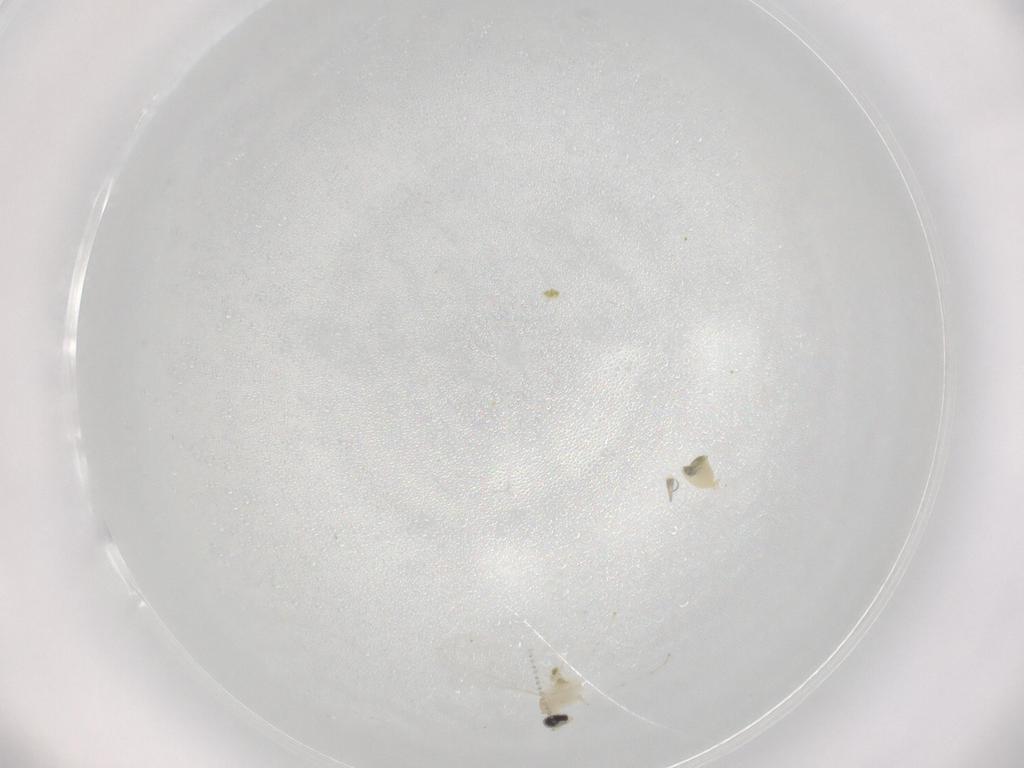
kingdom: Animalia
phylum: Arthropoda
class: Insecta
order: Diptera
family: Cecidomyiidae
